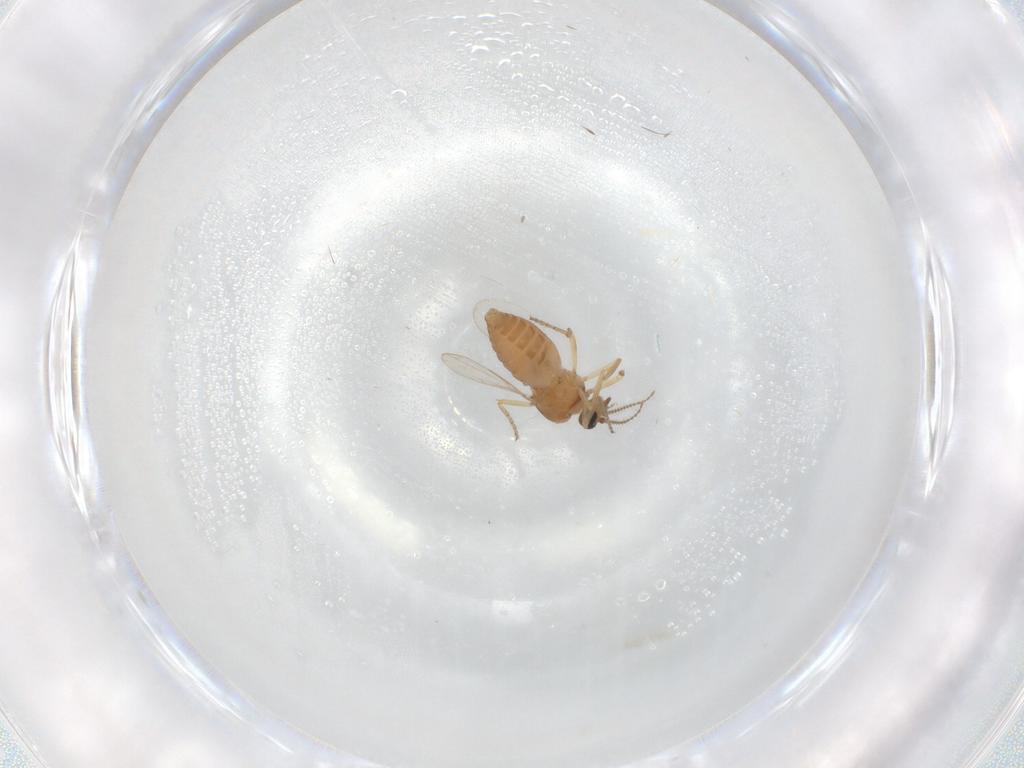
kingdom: Animalia
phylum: Arthropoda
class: Insecta
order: Diptera
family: Ceratopogonidae
